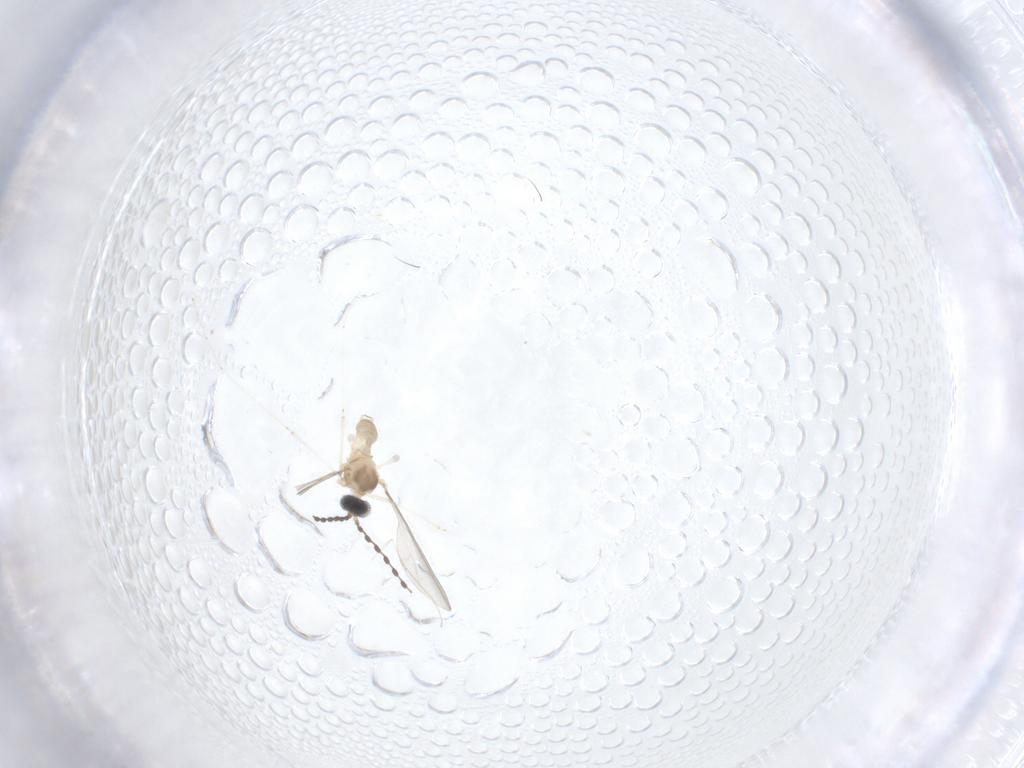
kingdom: Animalia
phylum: Arthropoda
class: Insecta
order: Diptera
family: Cecidomyiidae
